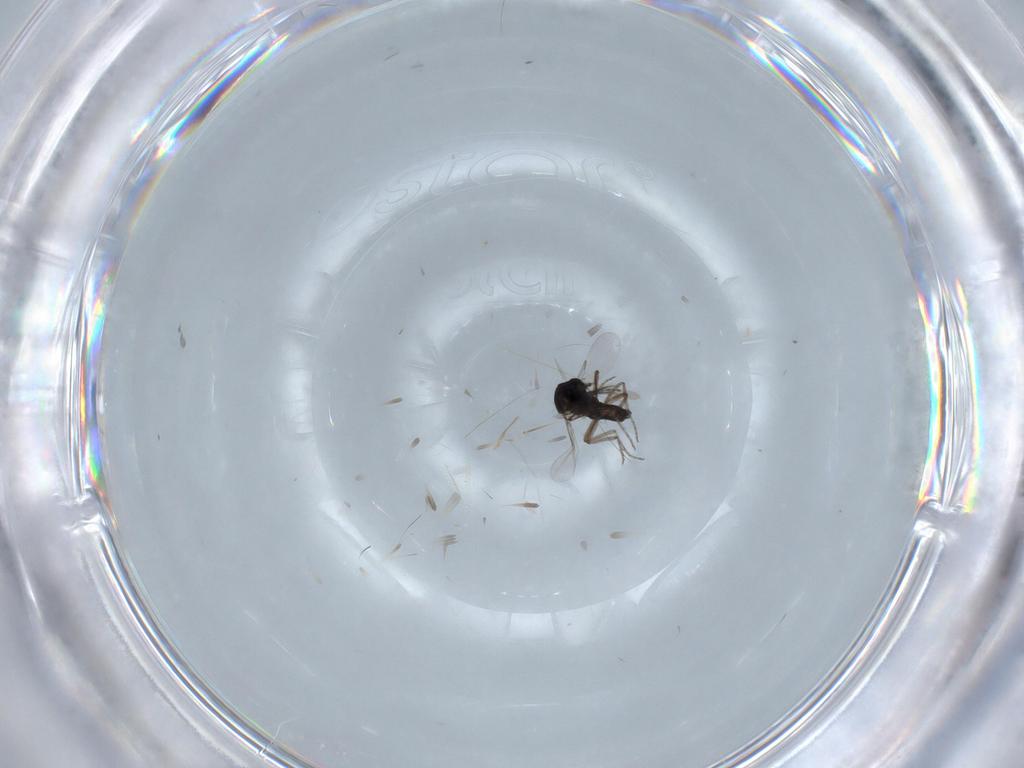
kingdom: Animalia
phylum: Arthropoda
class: Insecta
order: Diptera
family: Ceratopogonidae
